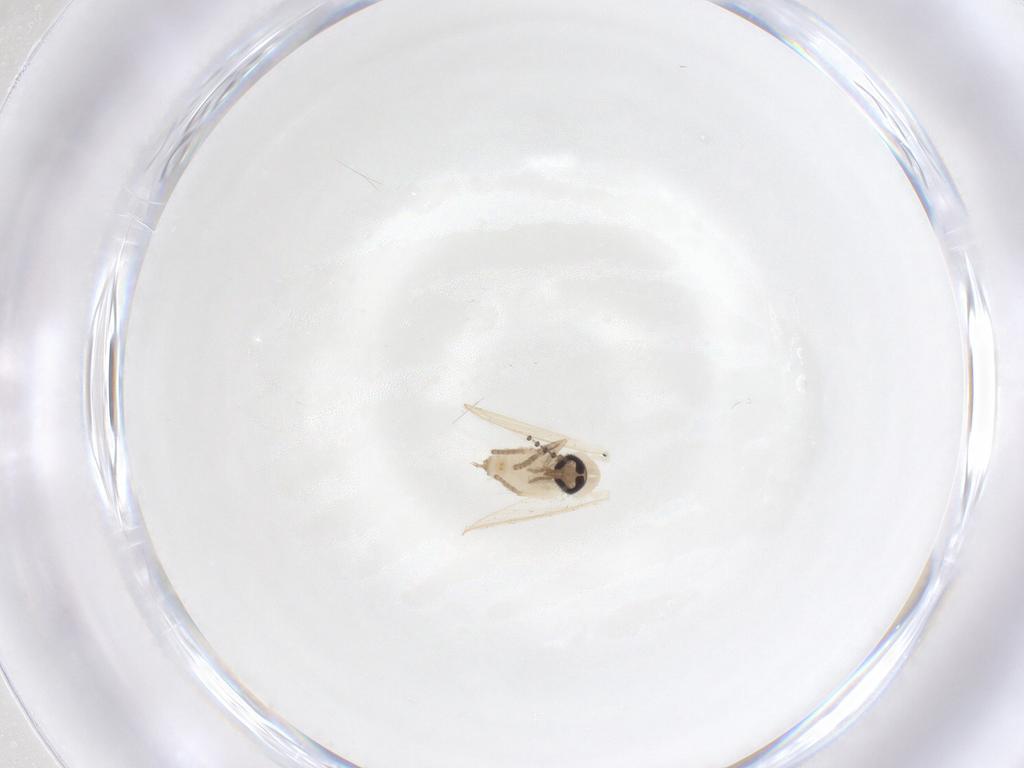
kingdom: Animalia
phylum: Arthropoda
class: Insecta
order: Diptera
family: Psychodidae
